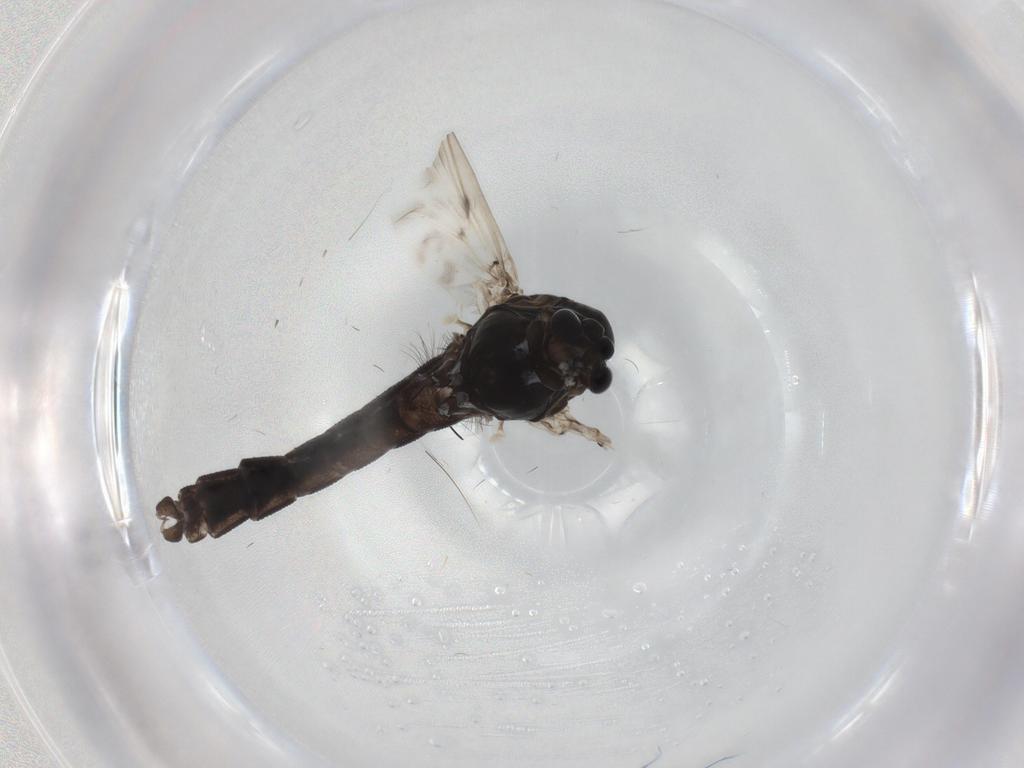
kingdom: Animalia
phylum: Arthropoda
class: Insecta
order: Diptera
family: Chironomidae
